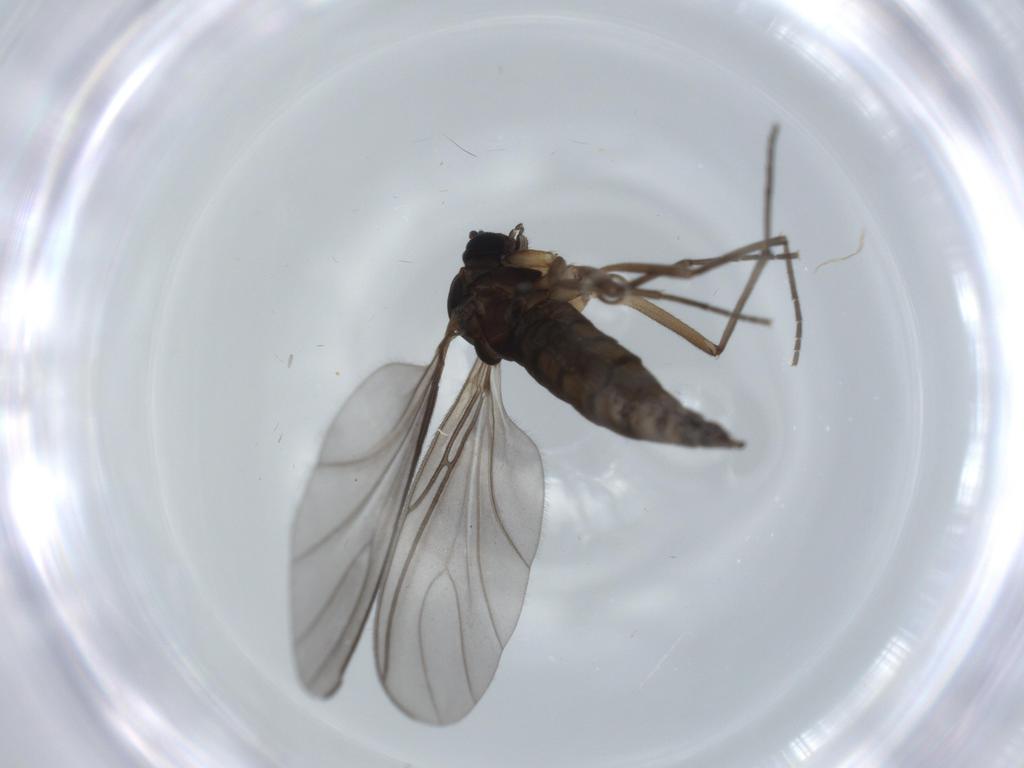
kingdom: Animalia
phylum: Arthropoda
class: Insecta
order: Diptera
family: Sciaridae
